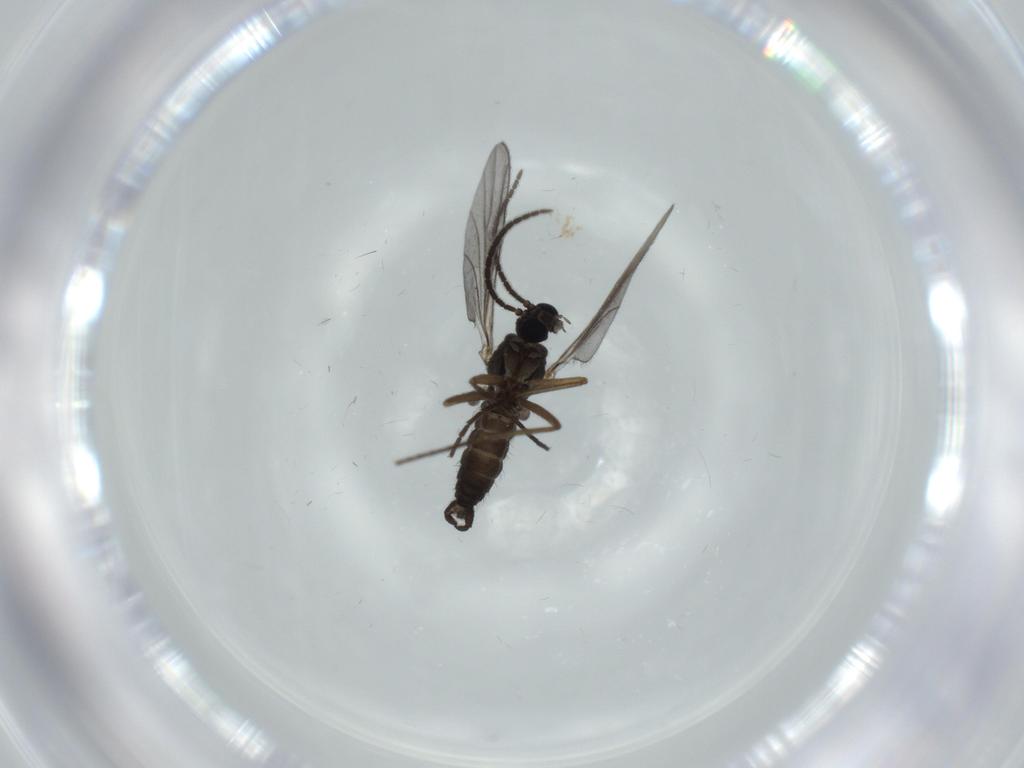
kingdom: Animalia
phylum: Arthropoda
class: Insecta
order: Diptera
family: Sciaridae
